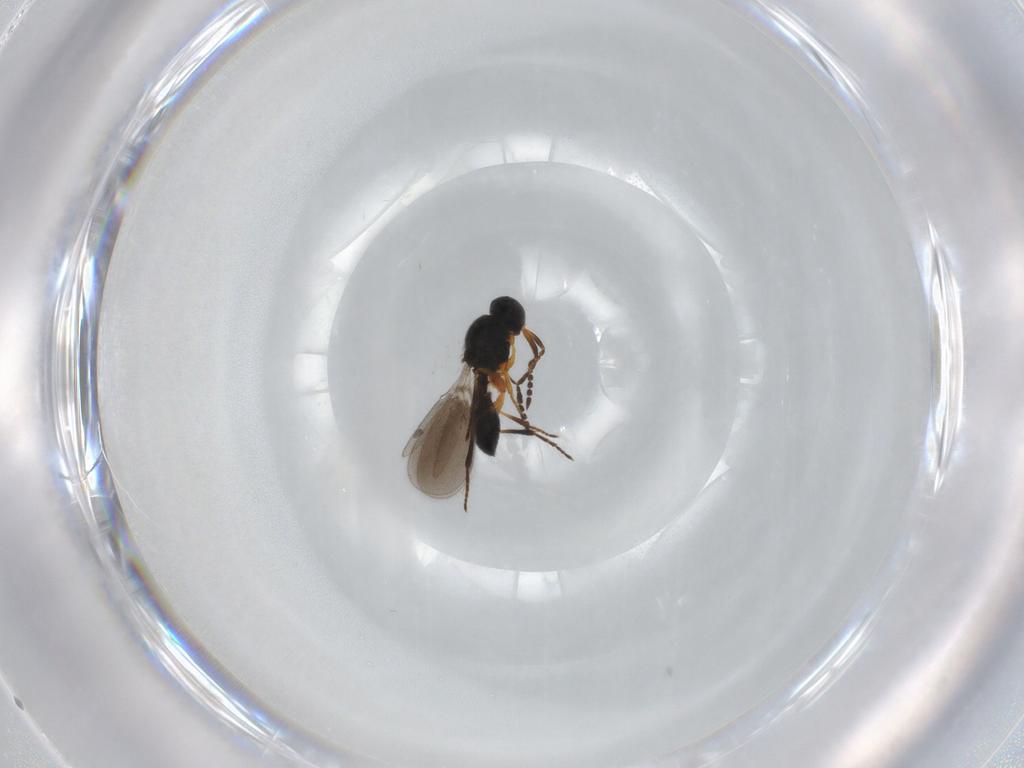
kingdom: Animalia
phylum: Arthropoda
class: Insecta
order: Hymenoptera
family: Platygastridae
